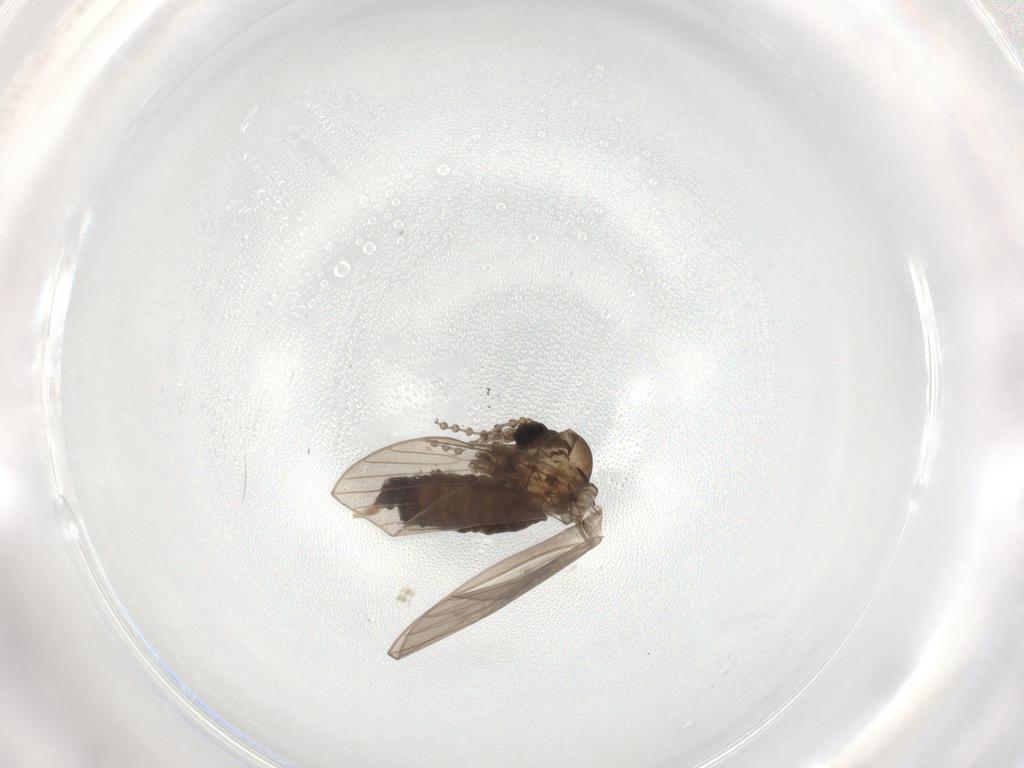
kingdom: Animalia
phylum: Arthropoda
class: Insecta
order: Diptera
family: Psychodidae
